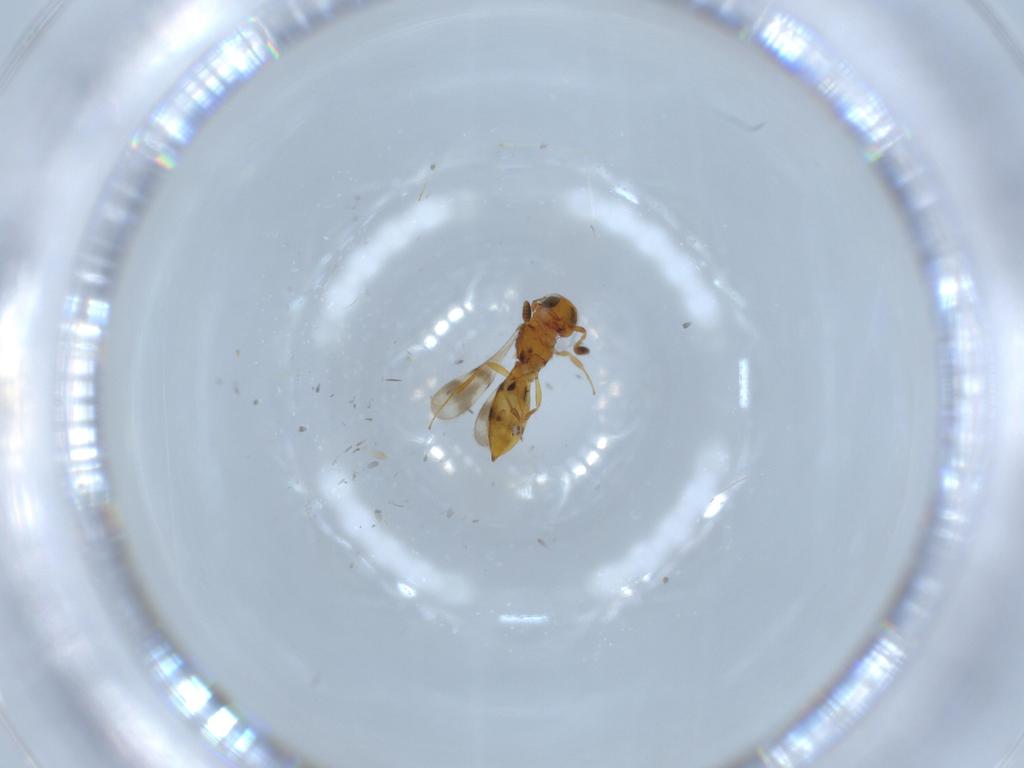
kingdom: Animalia
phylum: Arthropoda
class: Insecta
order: Hymenoptera
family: Scelionidae
